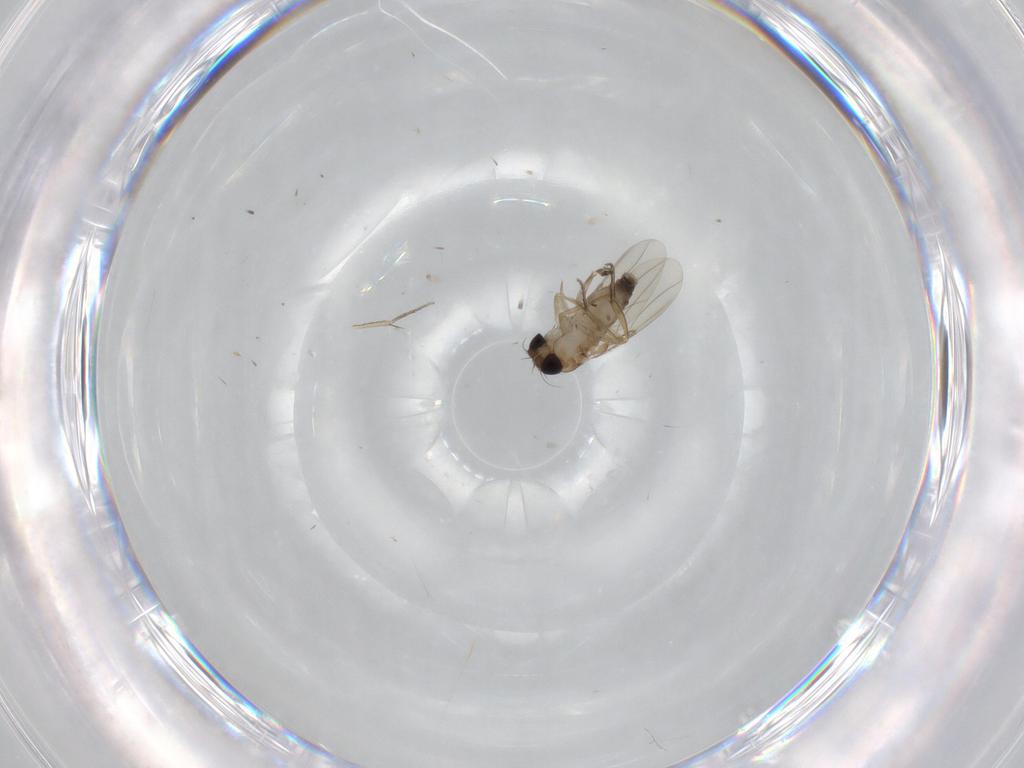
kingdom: Animalia
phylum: Arthropoda
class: Insecta
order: Diptera
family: Phoridae
